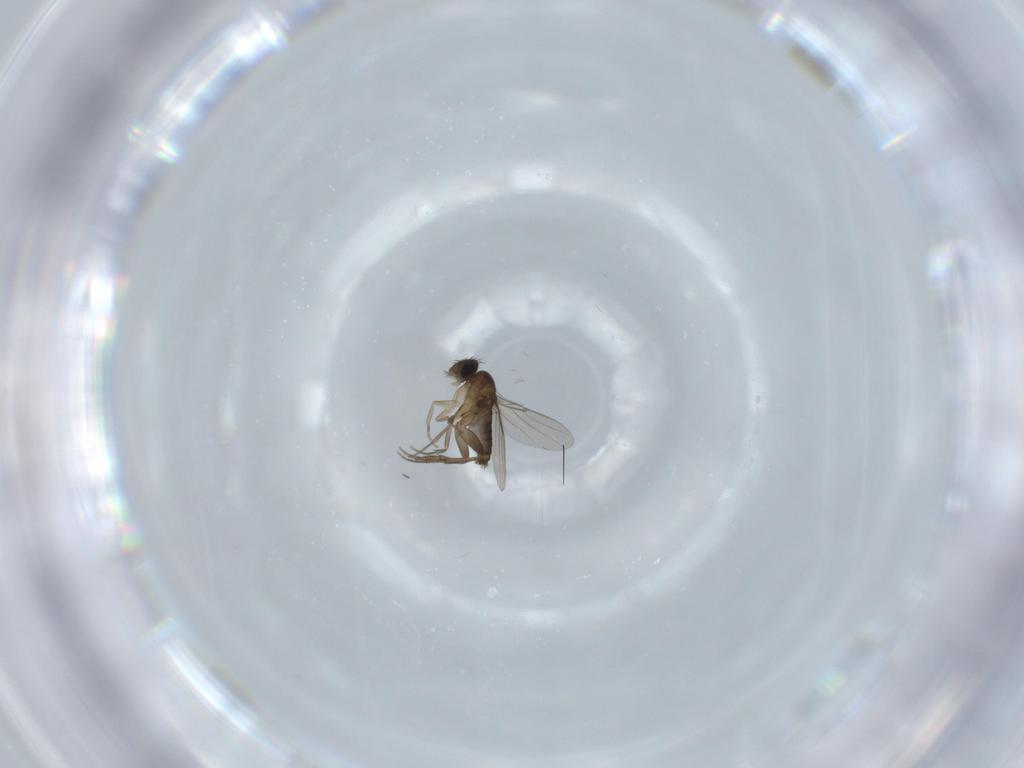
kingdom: Animalia
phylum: Arthropoda
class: Insecta
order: Diptera
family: Phoridae
